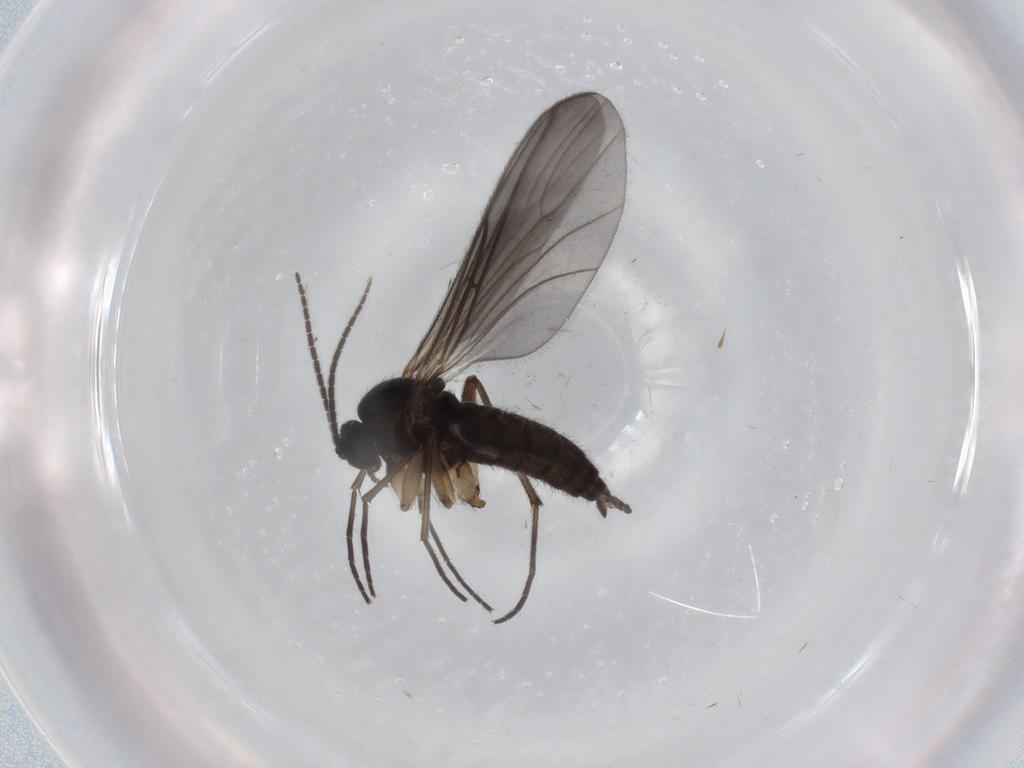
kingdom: Animalia
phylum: Arthropoda
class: Insecta
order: Diptera
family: Sciaridae
